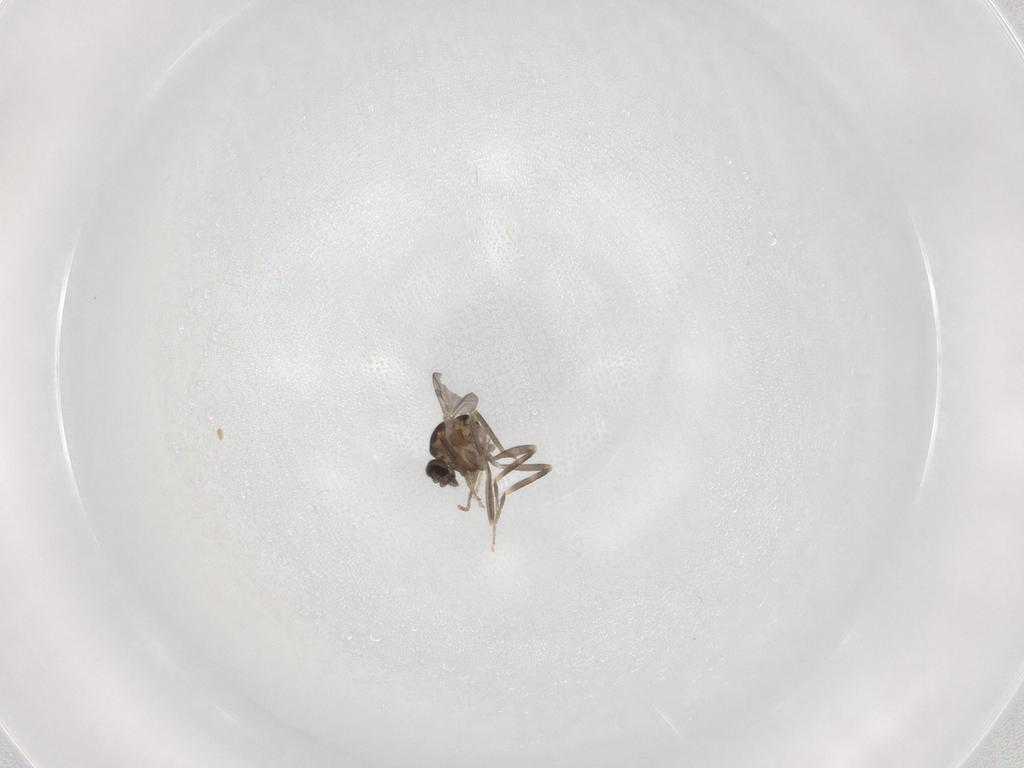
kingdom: Animalia
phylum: Arthropoda
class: Insecta
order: Diptera
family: Ceratopogonidae
